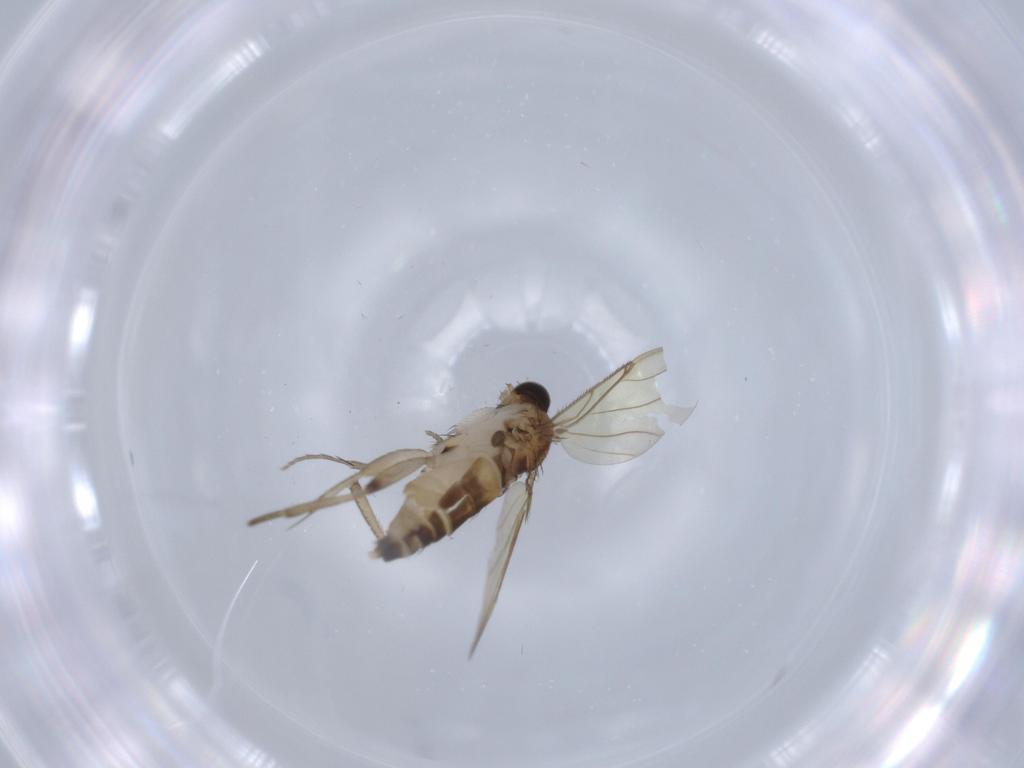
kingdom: Animalia
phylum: Arthropoda
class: Insecta
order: Diptera
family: Phoridae
